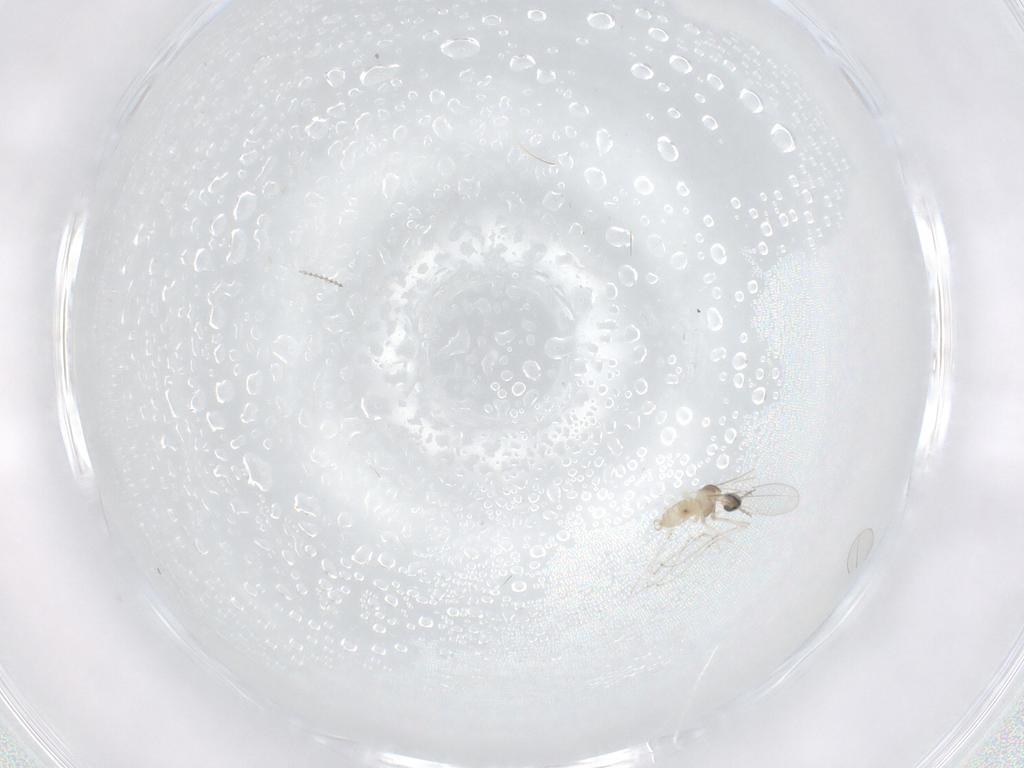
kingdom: Animalia
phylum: Arthropoda
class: Insecta
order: Diptera
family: Cecidomyiidae
